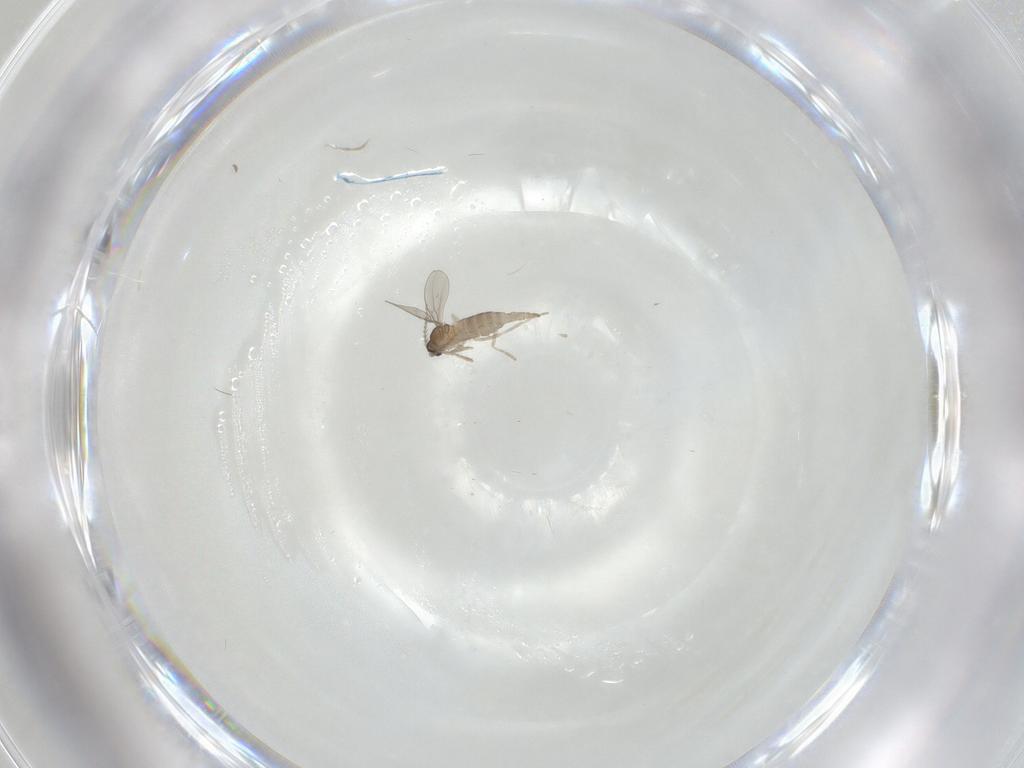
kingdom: Animalia
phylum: Arthropoda
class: Insecta
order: Diptera
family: Cecidomyiidae
